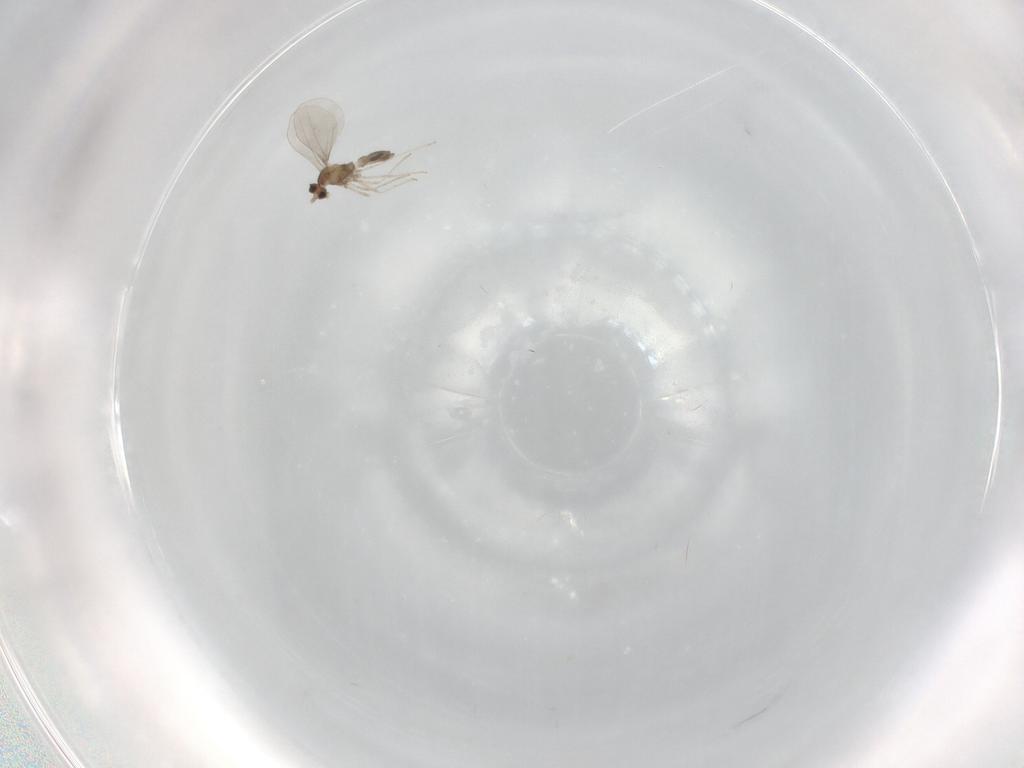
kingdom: Animalia
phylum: Arthropoda
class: Insecta
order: Diptera
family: Cecidomyiidae
